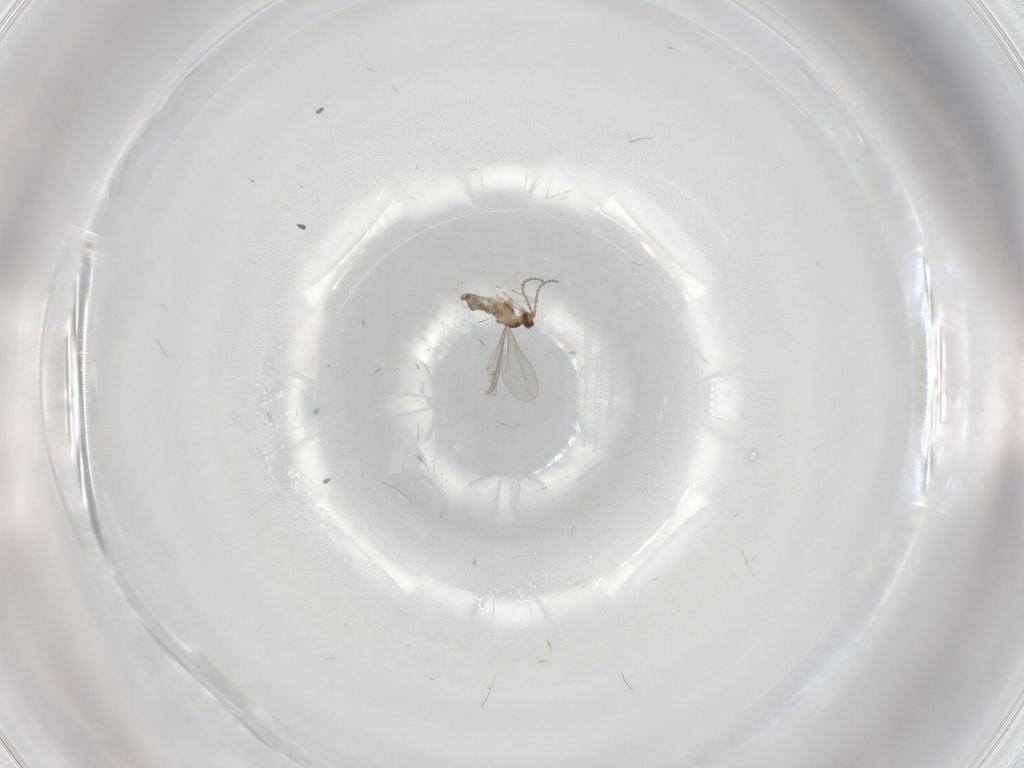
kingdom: Animalia
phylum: Arthropoda
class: Insecta
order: Diptera
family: Cecidomyiidae
